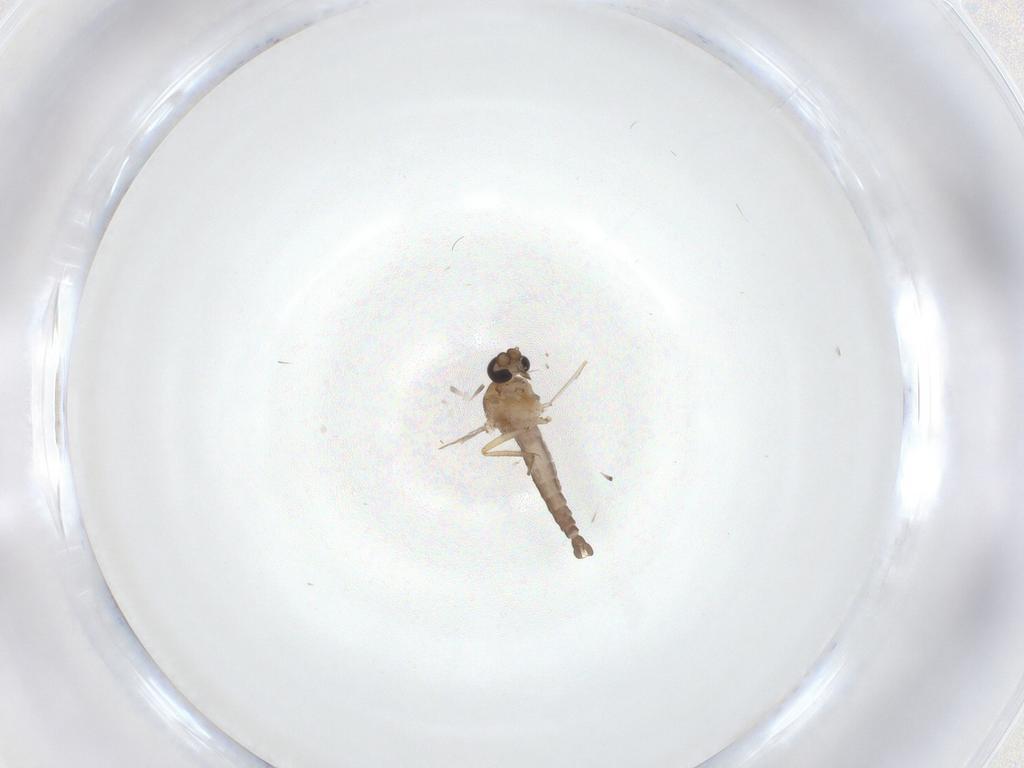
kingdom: Animalia
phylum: Arthropoda
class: Insecta
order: Diptera
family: Ceratopogonidae
